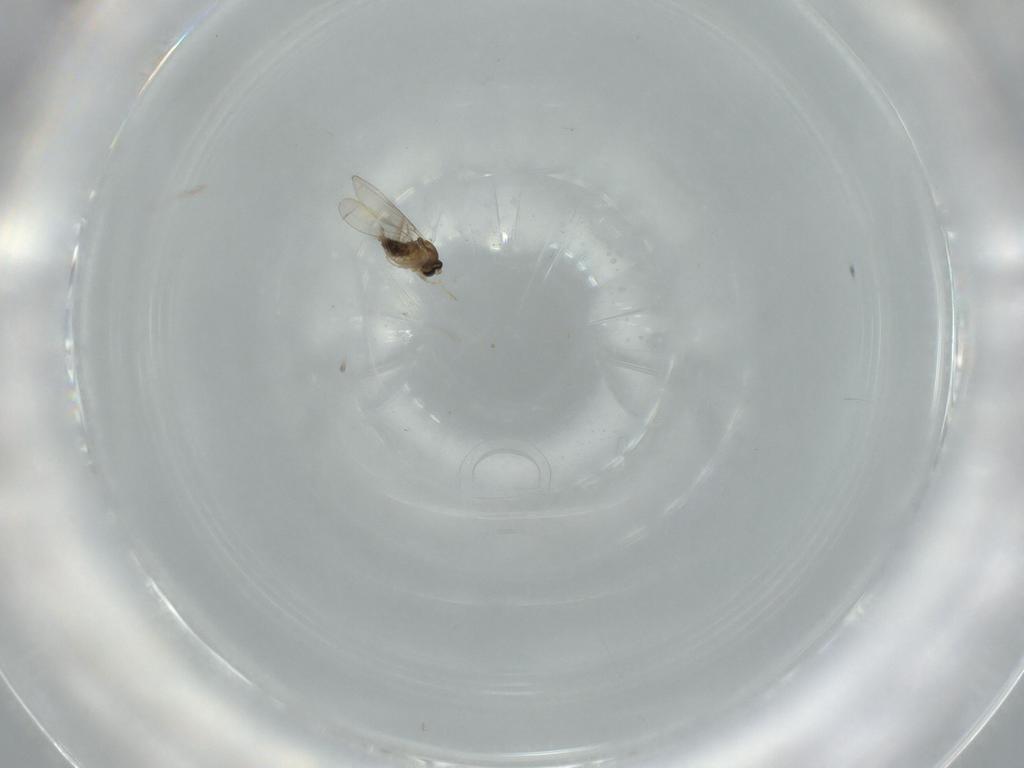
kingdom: Animalia
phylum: Arthropoda
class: Insecta
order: Diptera
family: Cecidomyiidae
